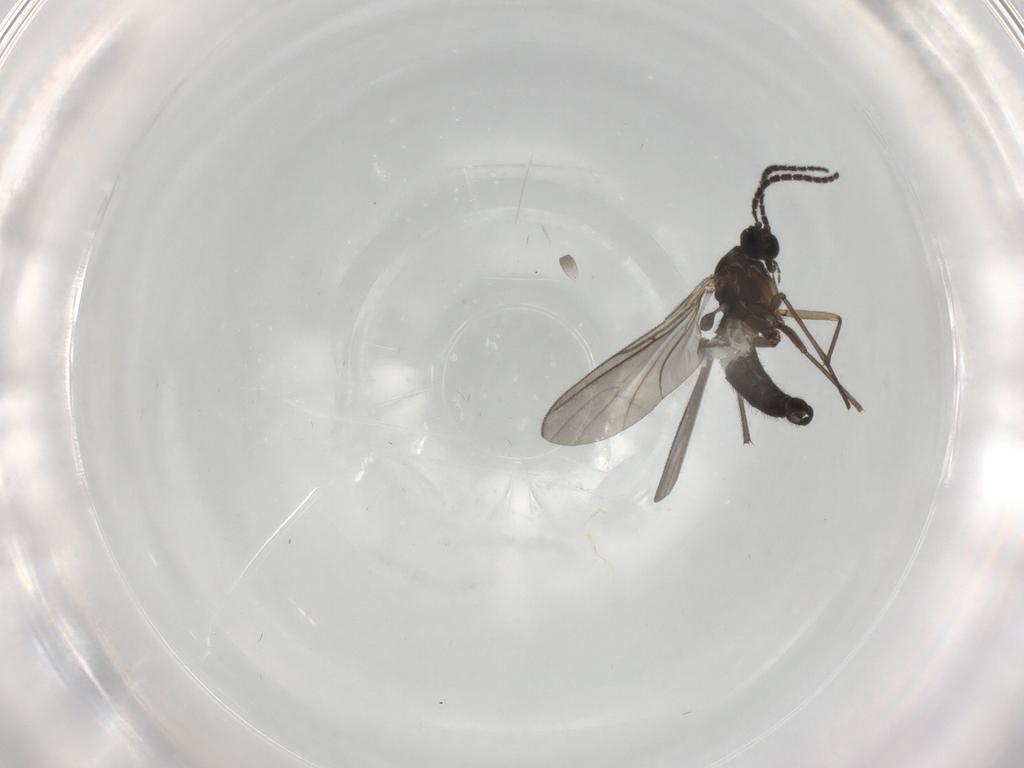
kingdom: Animalia
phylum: Arthropoda
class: Insecta
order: Diptera
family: Sciaridae
